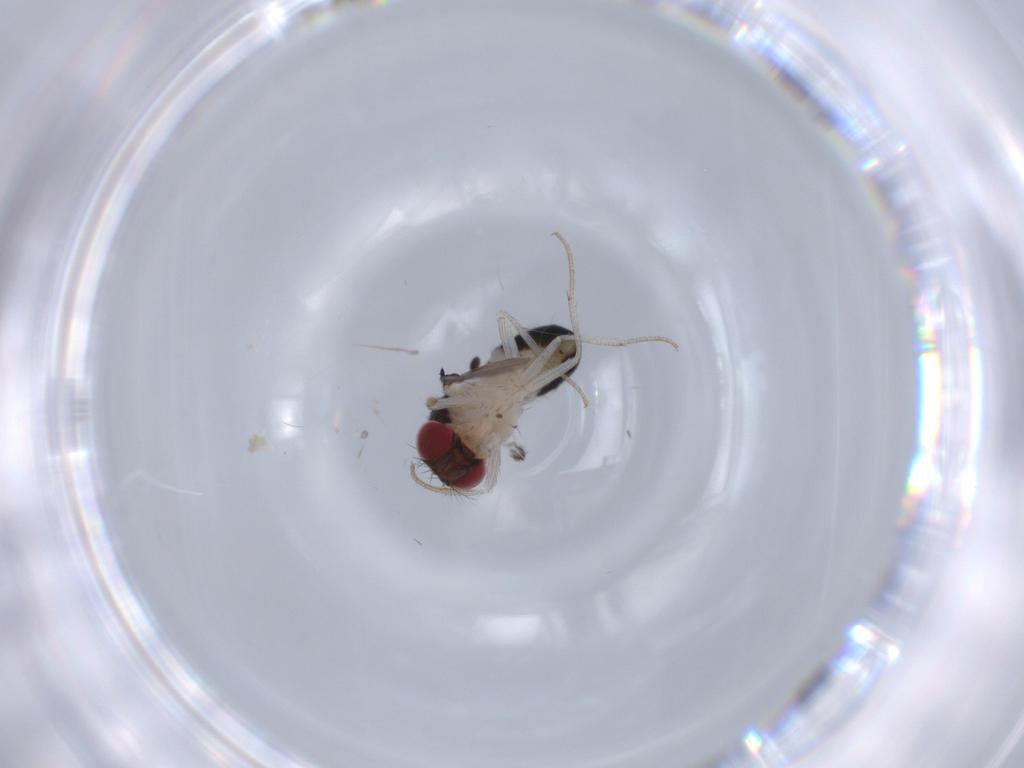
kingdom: Animalia
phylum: Arthropoda
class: Insecta
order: Diptera
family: Drosophilidae
